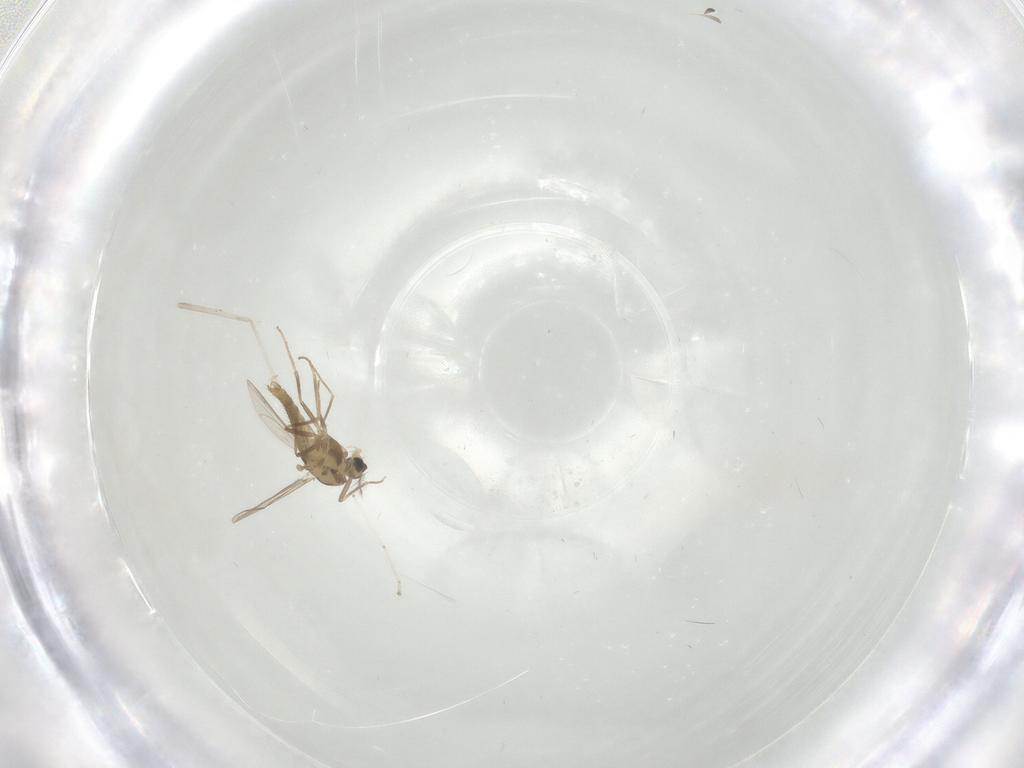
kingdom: Animalia
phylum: Arthropoda
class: Insecta
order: Diptera
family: Chironomidae
